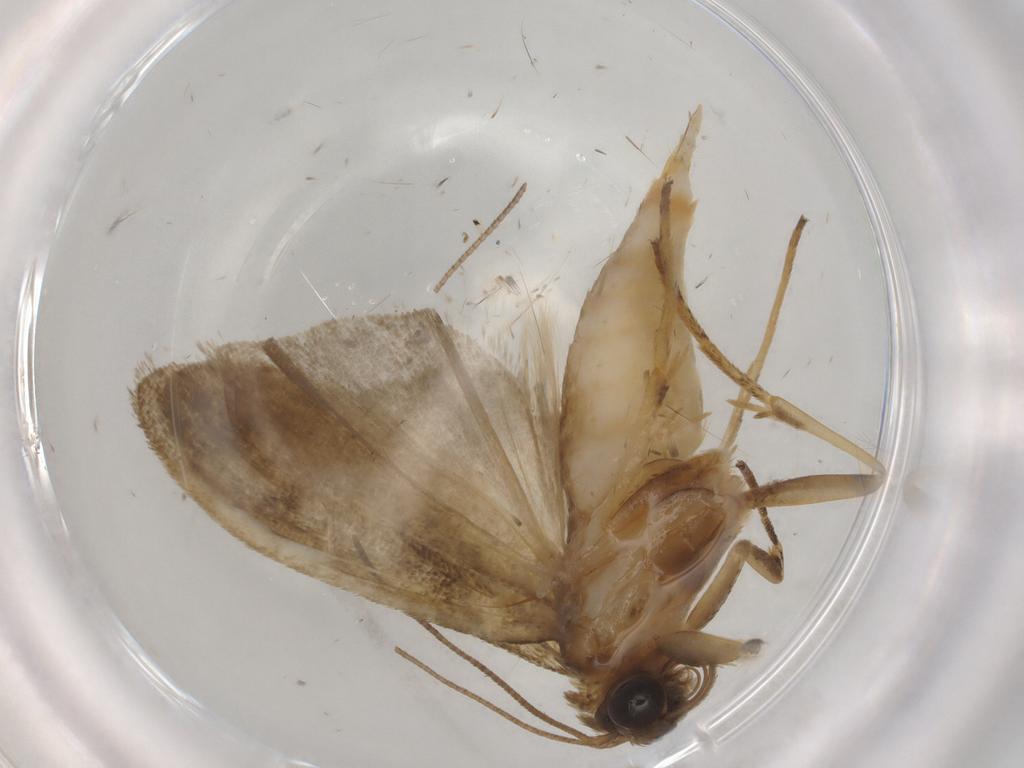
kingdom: Animalia
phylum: Arthropoda
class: Insecta
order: Lepidoptera
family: Noctuidae
